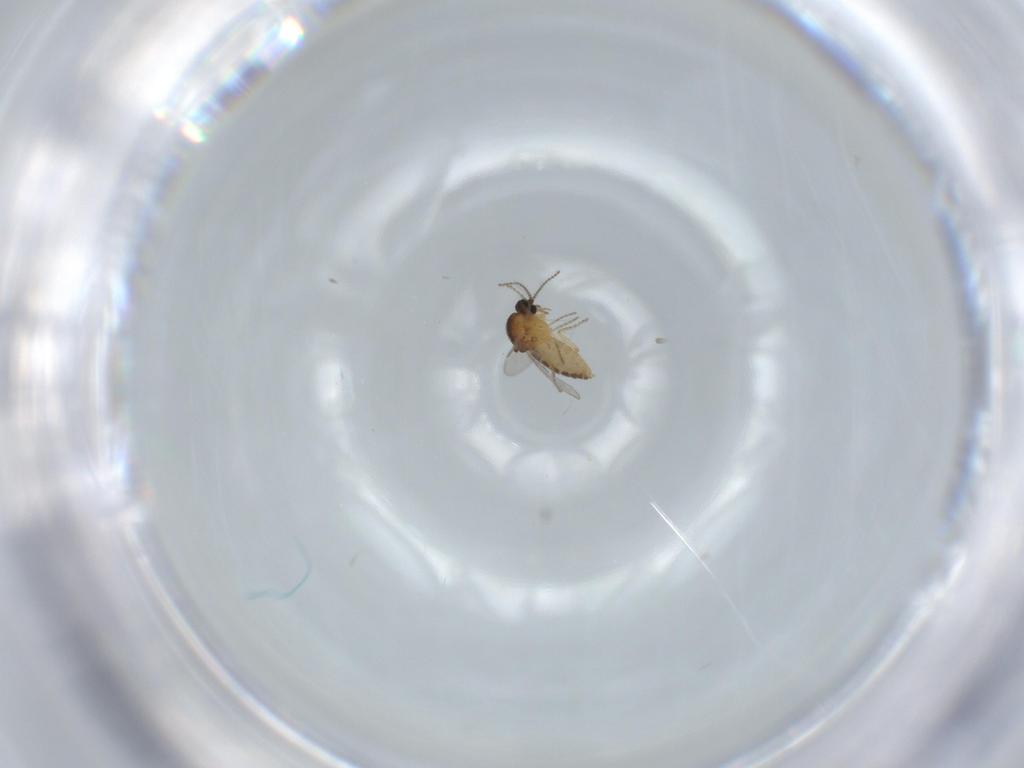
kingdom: Animalia
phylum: Arthropoda
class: Insecta
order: Diptera
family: Ceratopogonidae
